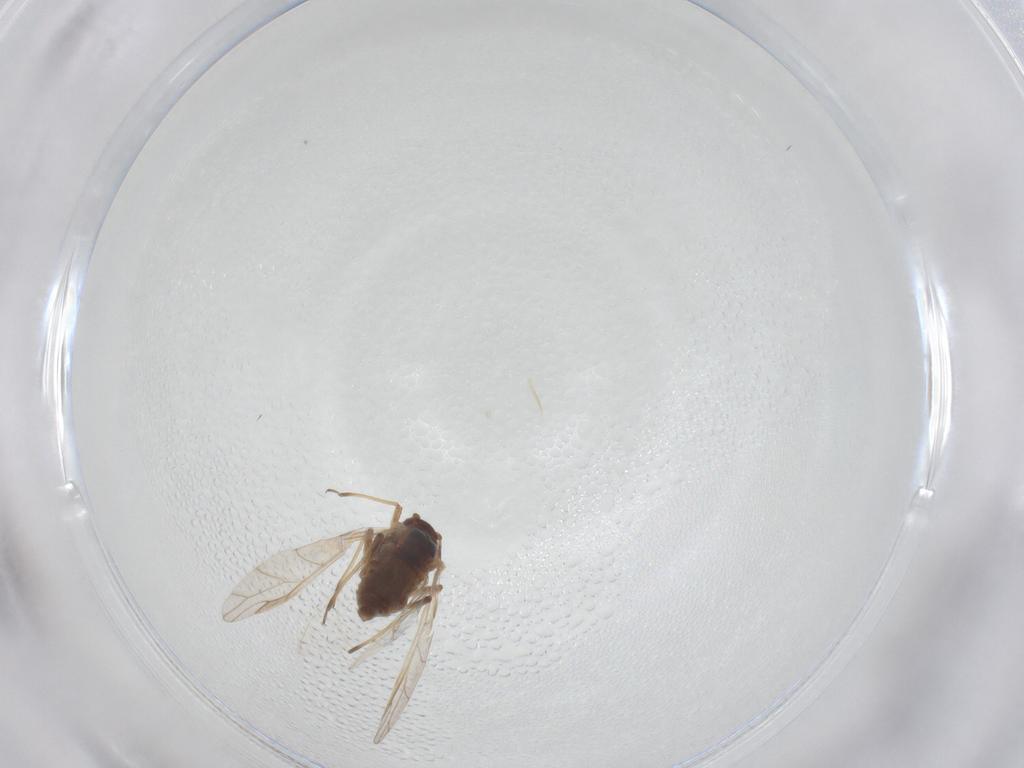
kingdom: Animalia
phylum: Arthropoda
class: Insecta
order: Hemiptera
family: Aphididae
